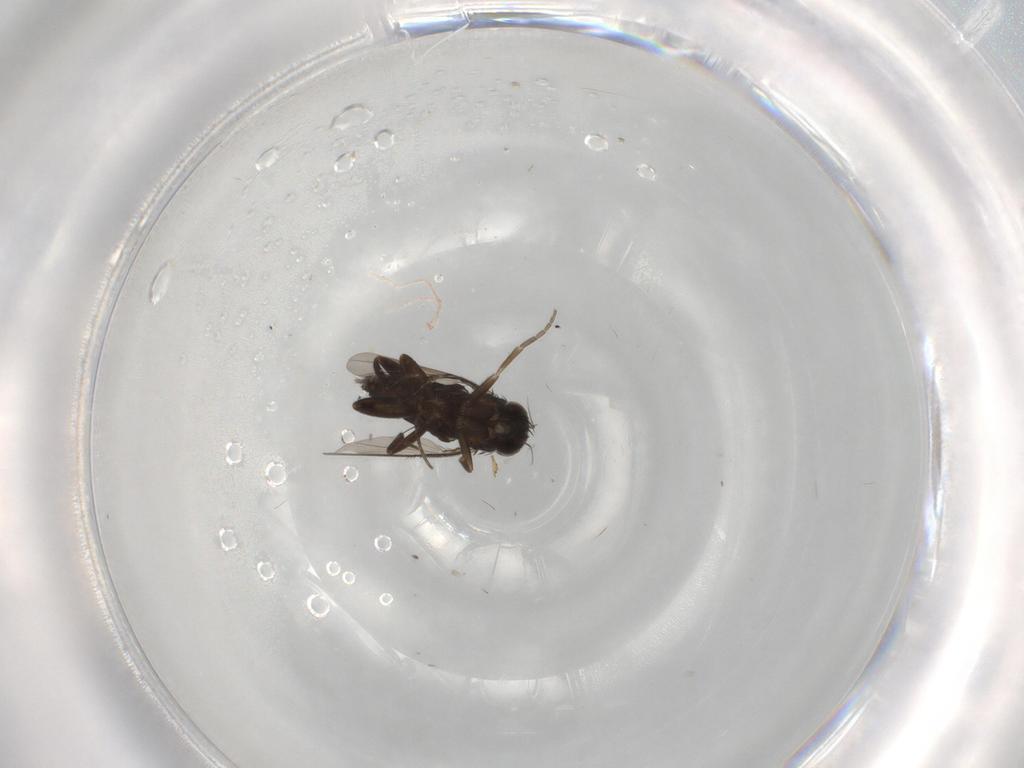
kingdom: Animalia
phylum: Arthropoda
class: Insecta
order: Diptera
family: Cecidomyiidae
